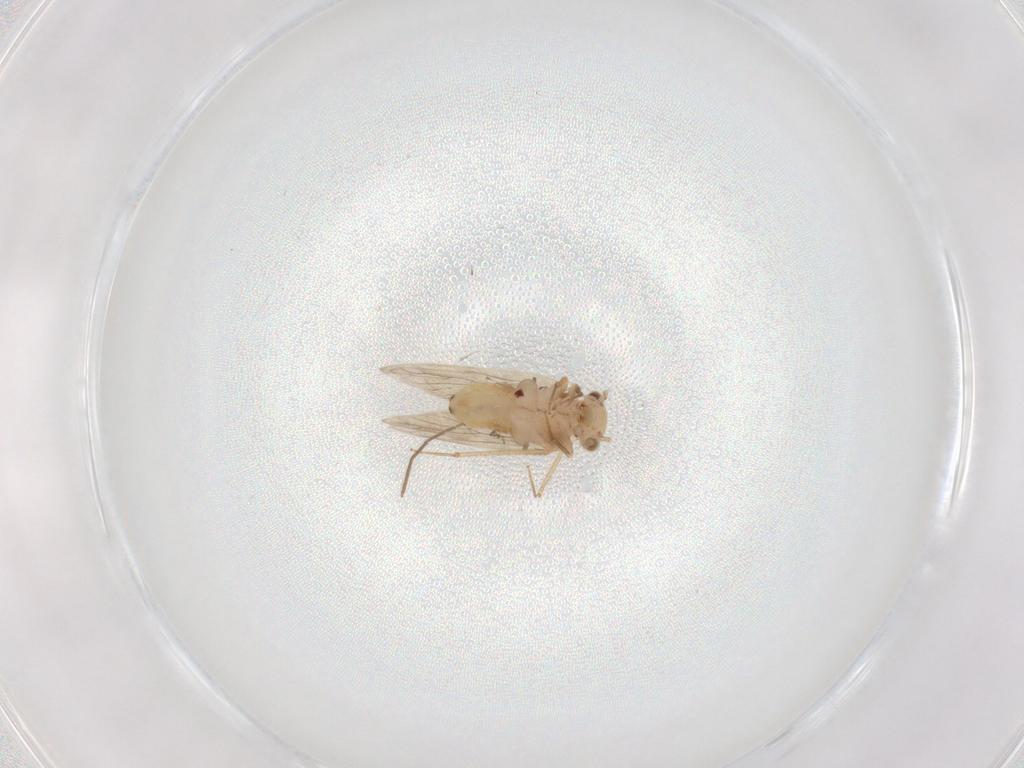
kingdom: Animalia
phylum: Arthropoda
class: Insecta
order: Psocodea
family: Lepidopsocidae
